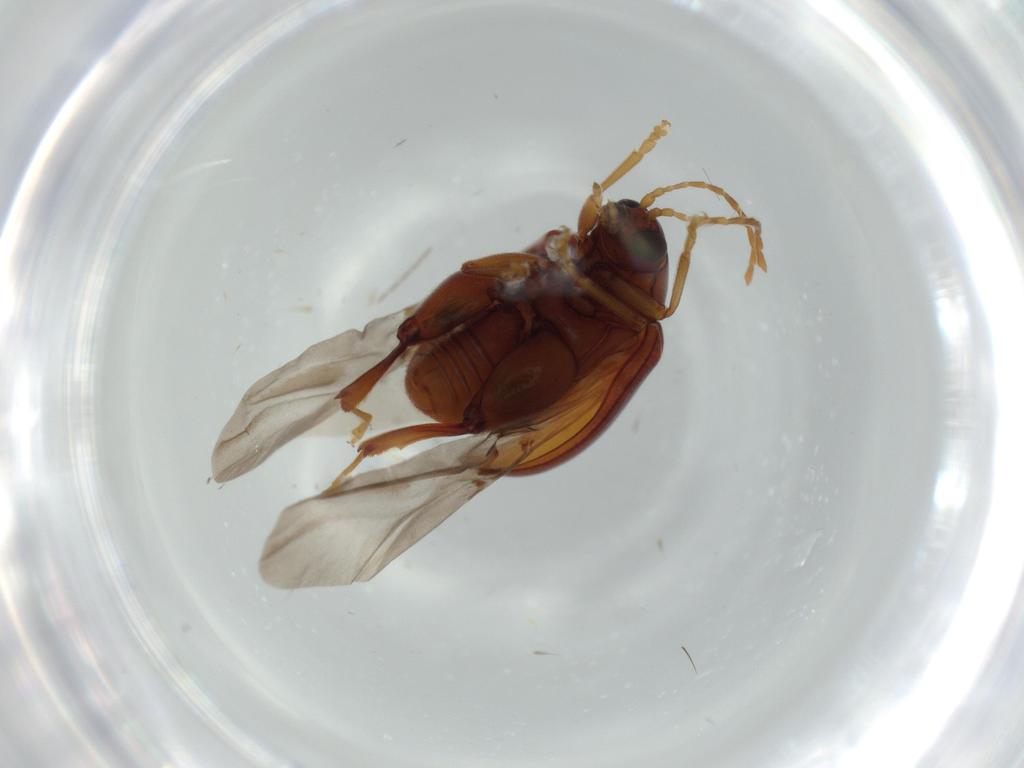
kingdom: Animalia
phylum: Arthropoda
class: Insecta
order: Coleoptera
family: Chrysomelidae
